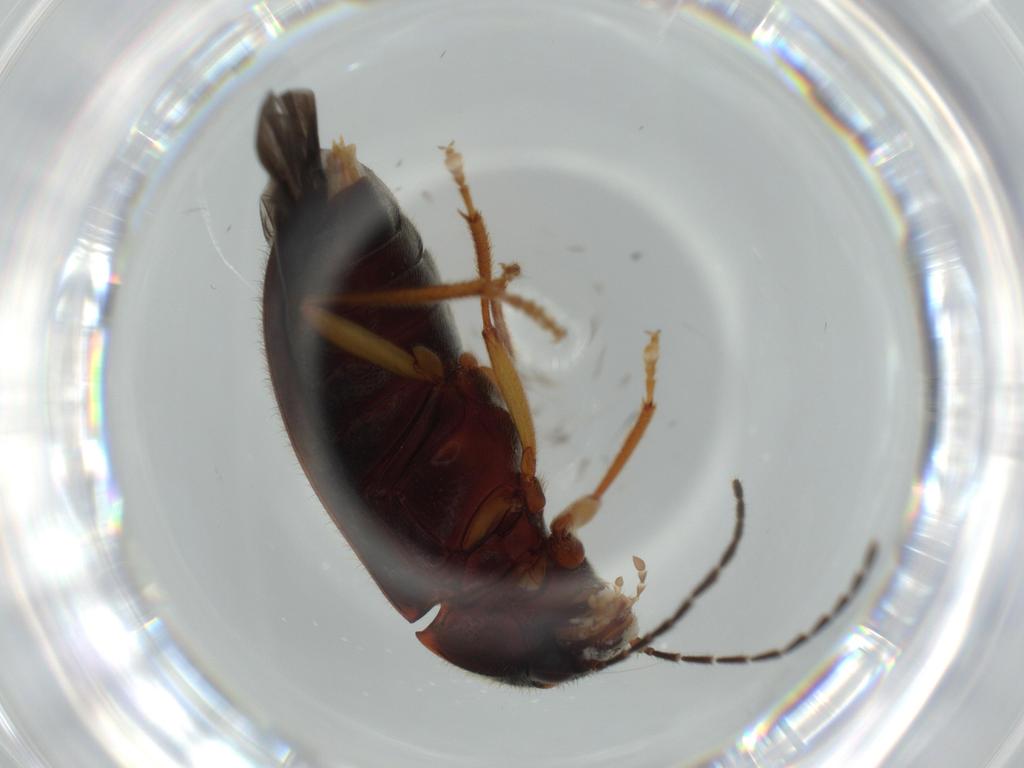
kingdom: Animalia
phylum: Arthropoda
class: Insecta
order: Coleoptera
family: Ptilodactylidae
